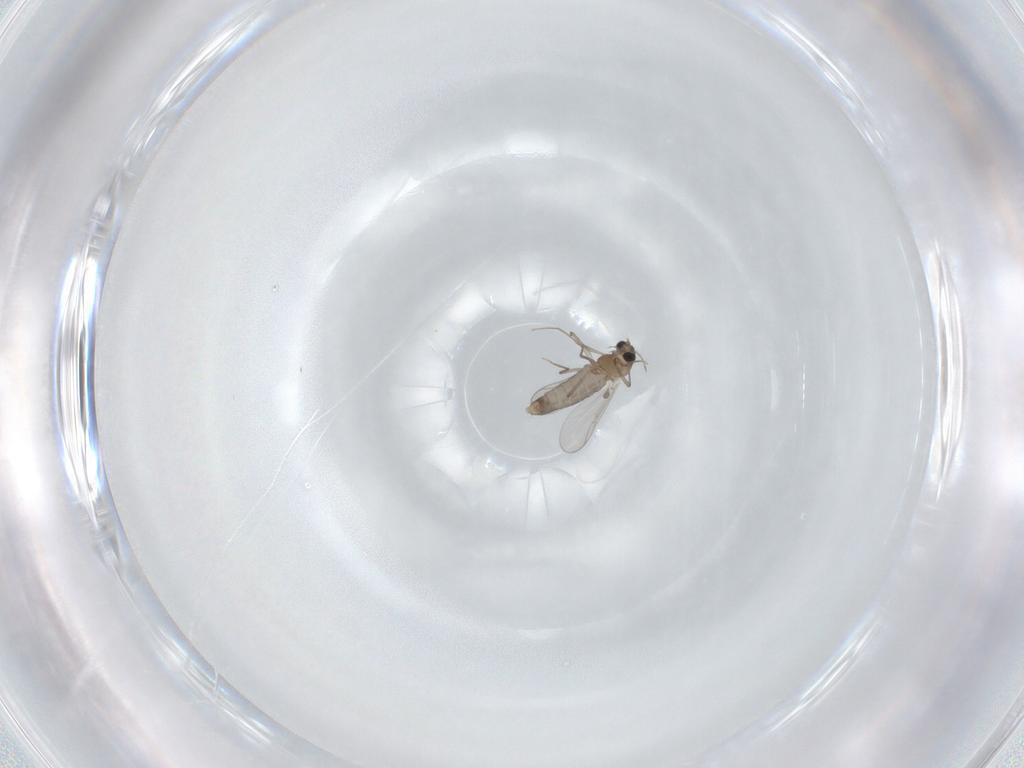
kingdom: Animalia
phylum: Arthropoda
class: Insecta
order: Diptera
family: Chironomidae
